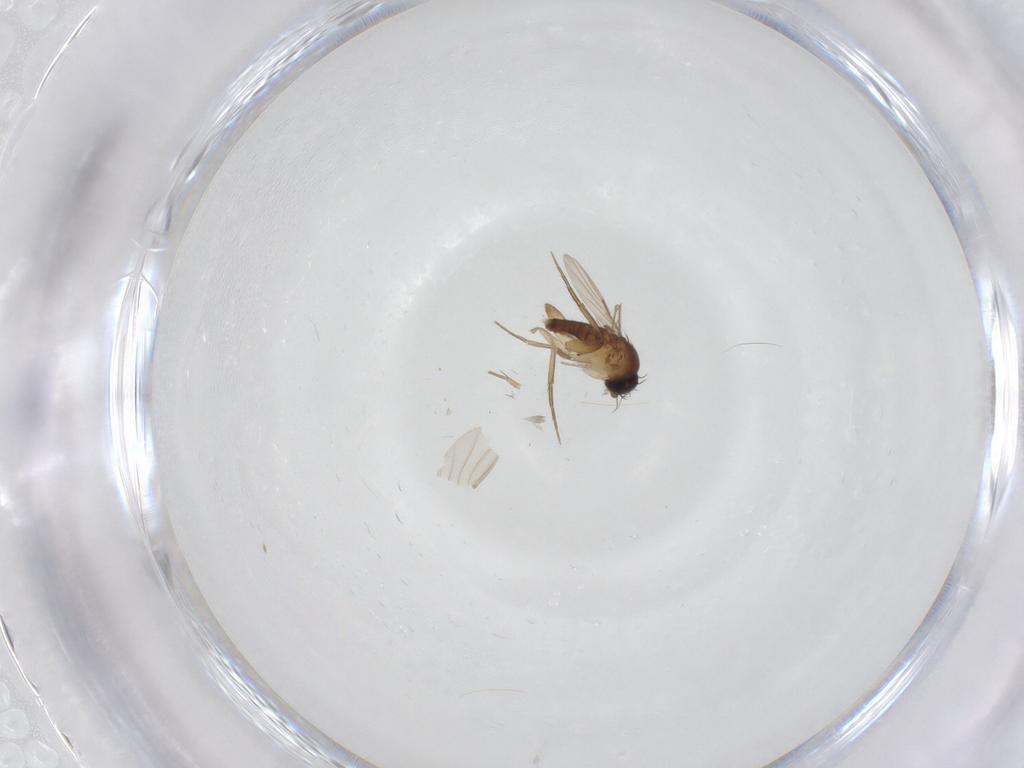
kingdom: Animalia
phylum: Arthropoda
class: Insecta
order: Diptera
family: Phoridae
